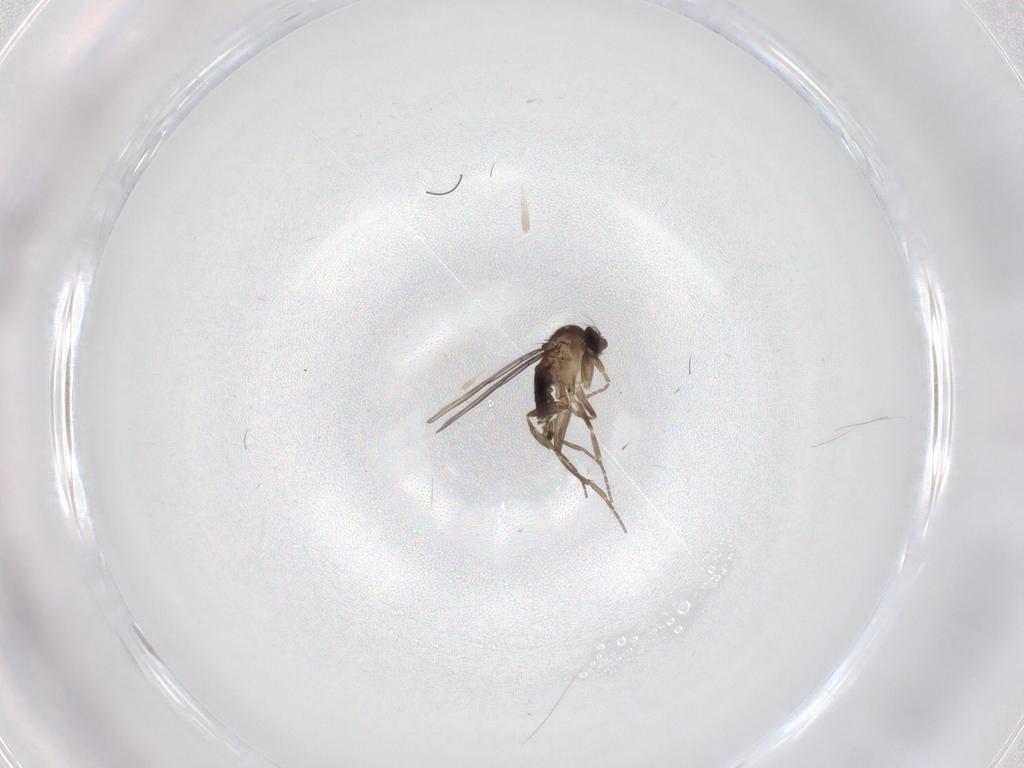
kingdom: Animalia
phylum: Arthropoda
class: Insecta
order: Diptera
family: Phoridae
